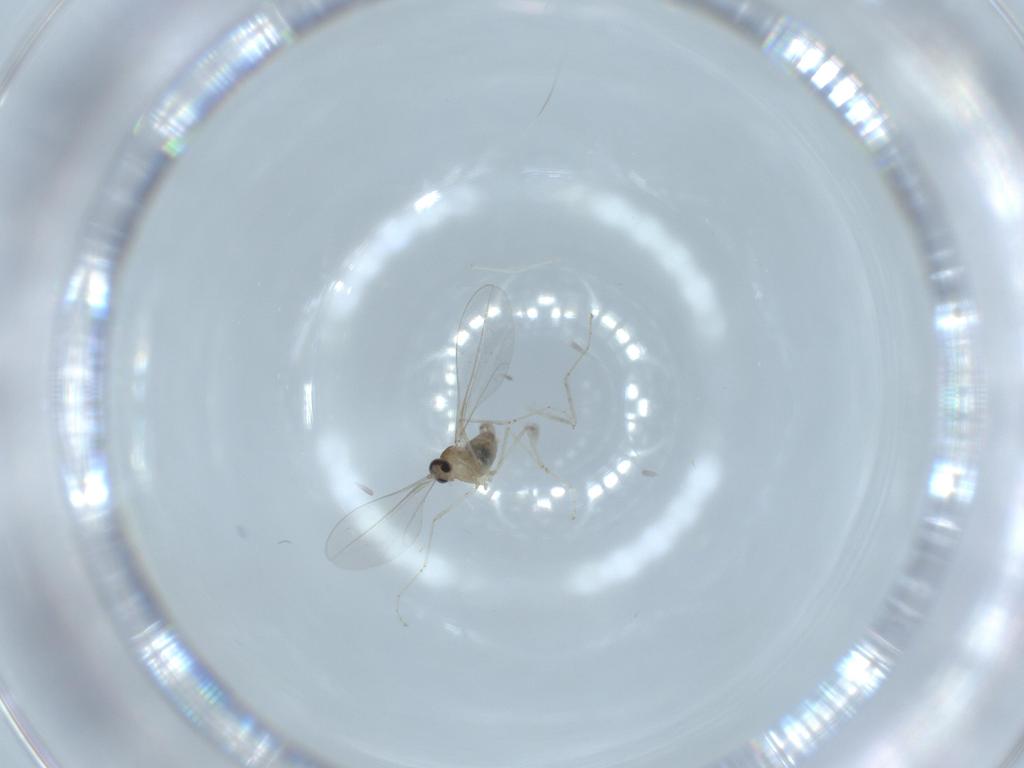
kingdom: Animalia
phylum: Arthropoda
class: Insecta
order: Diptera
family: Cecidomyiidae
